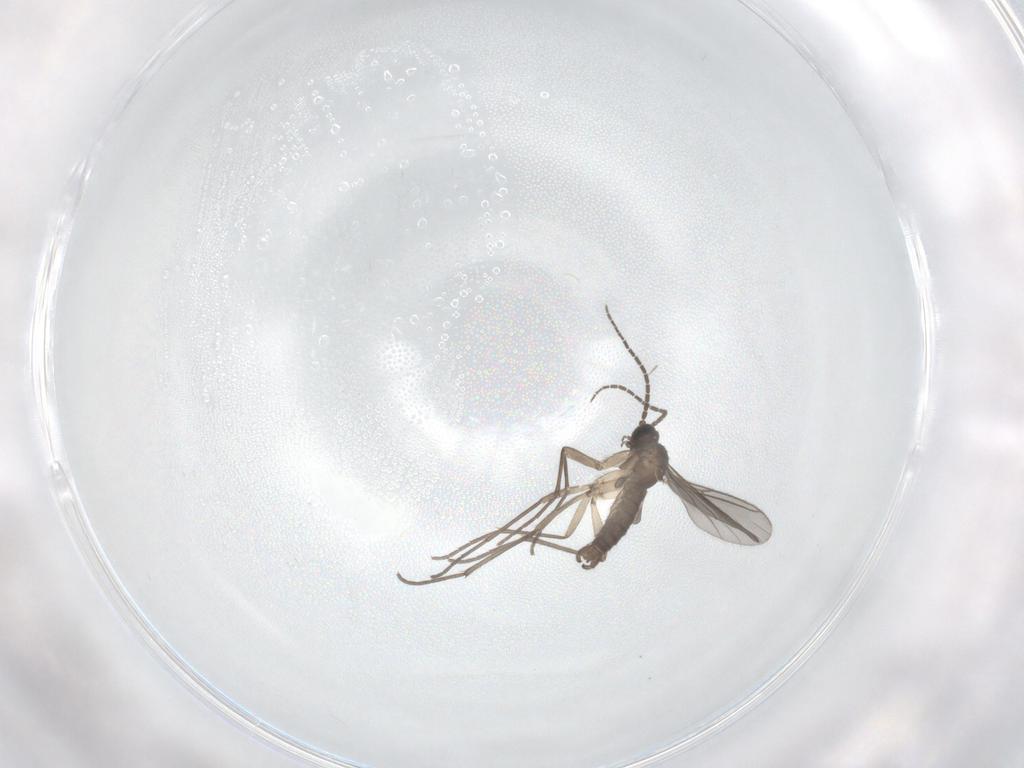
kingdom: Animalia
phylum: Arthropoda
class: Insecta
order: Diptera
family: Sciaridae
